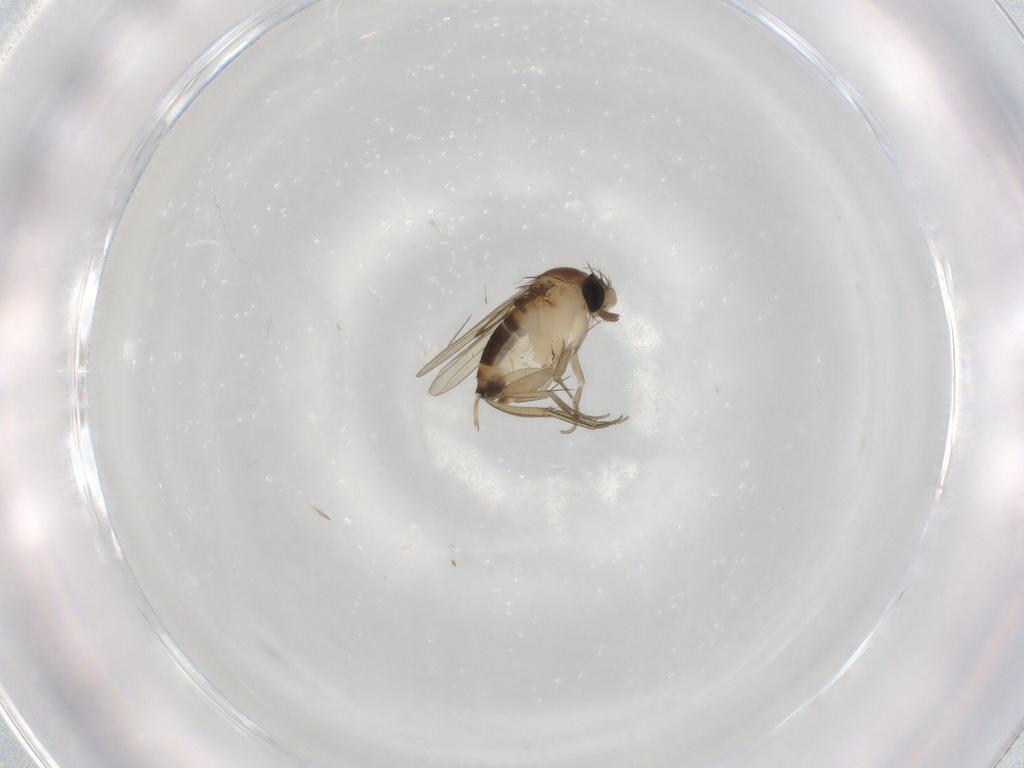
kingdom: Animalia
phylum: Arthropoda
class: Insecta
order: Diptera
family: Phoridae
